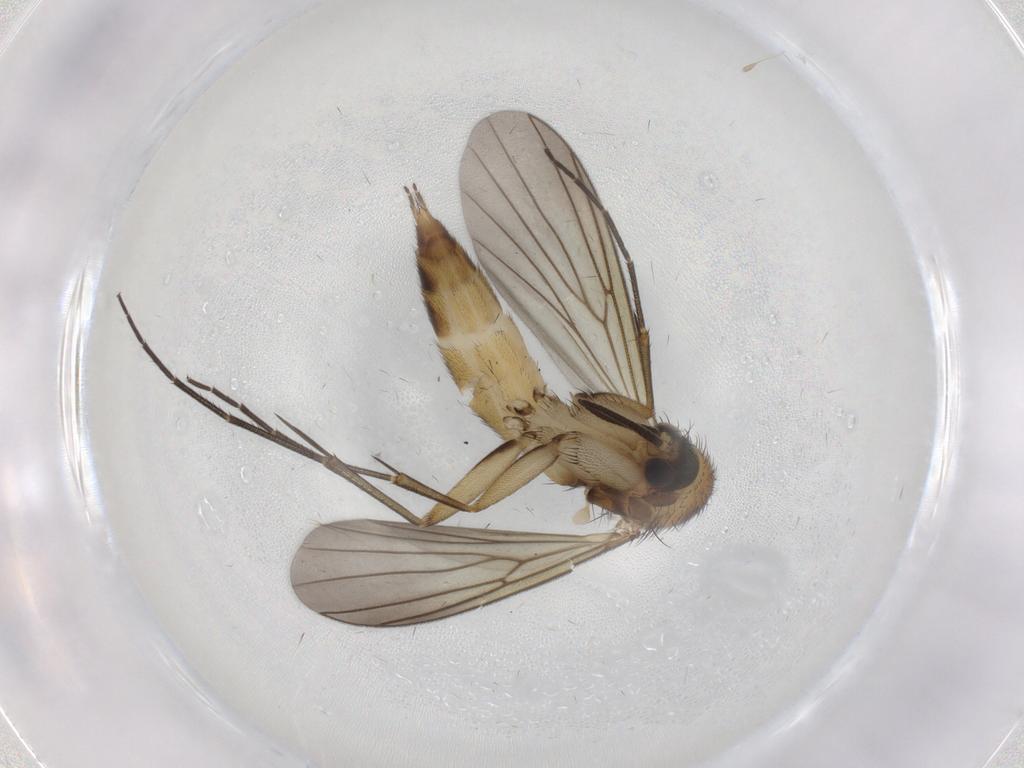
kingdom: Animalia
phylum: Arthropoda
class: Insecta
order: Diptera
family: Mycetophilidae
